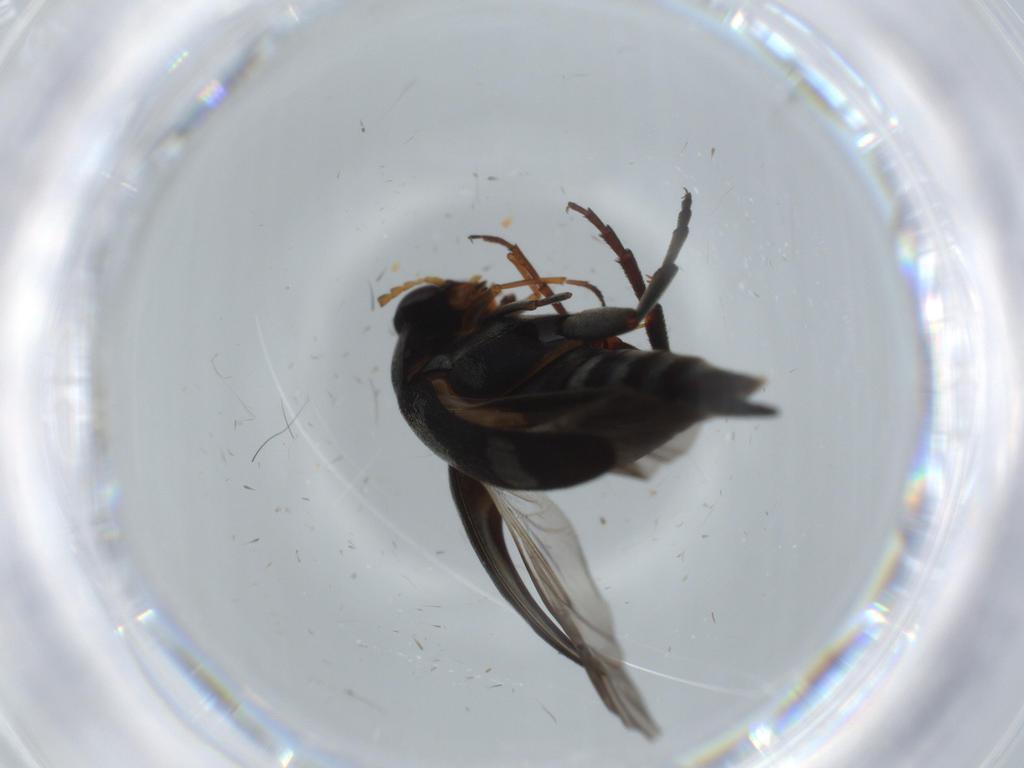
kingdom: Animalia
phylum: Arthropoda
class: Insecta
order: Coleoptera
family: Mordellidae
